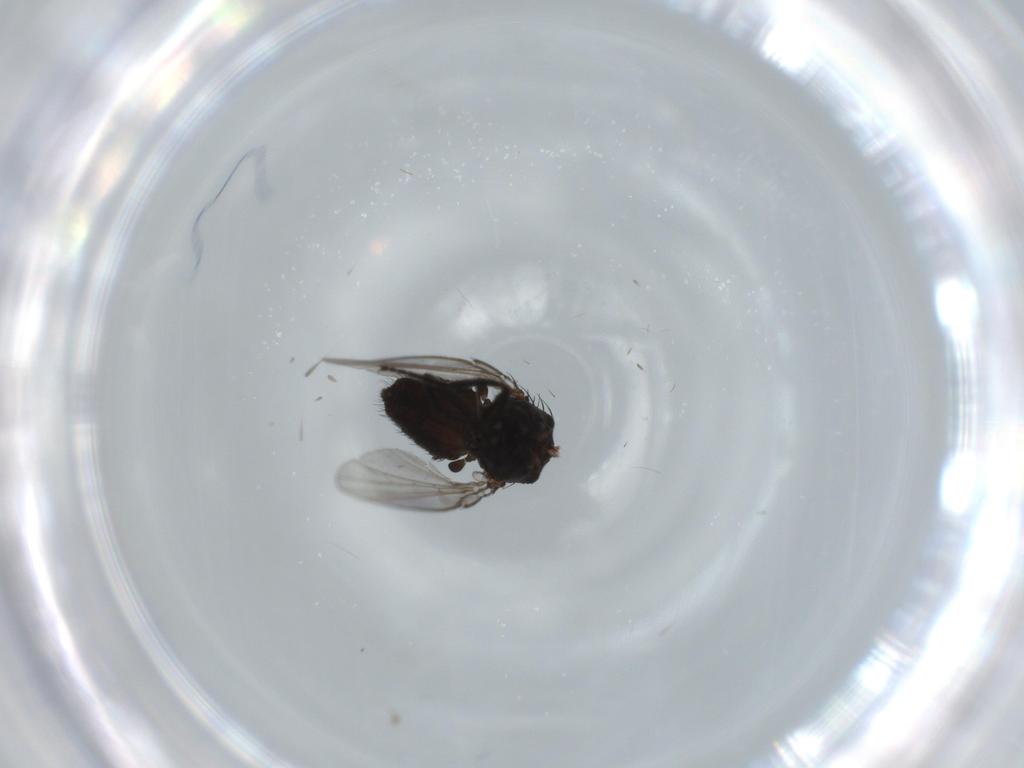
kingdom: Animalia
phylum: Arthropoda
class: Insecta
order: Diptera
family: Milichiidae
